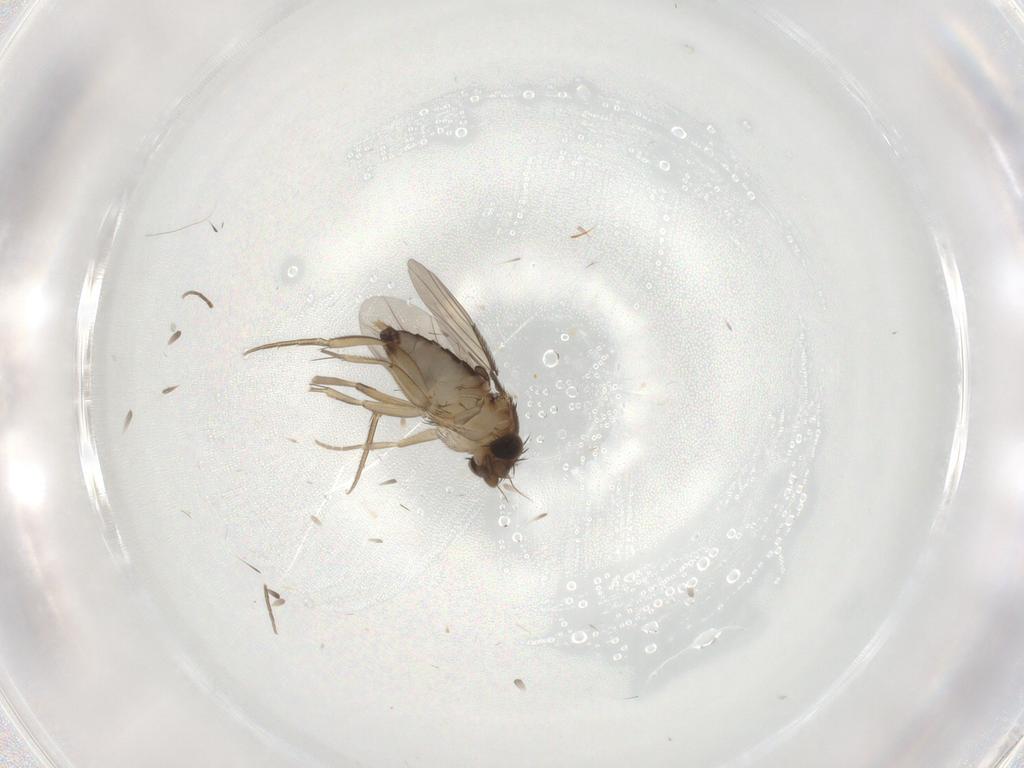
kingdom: Animalia
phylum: Arthropoda
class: Insecta
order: Diptera
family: Phoridae
